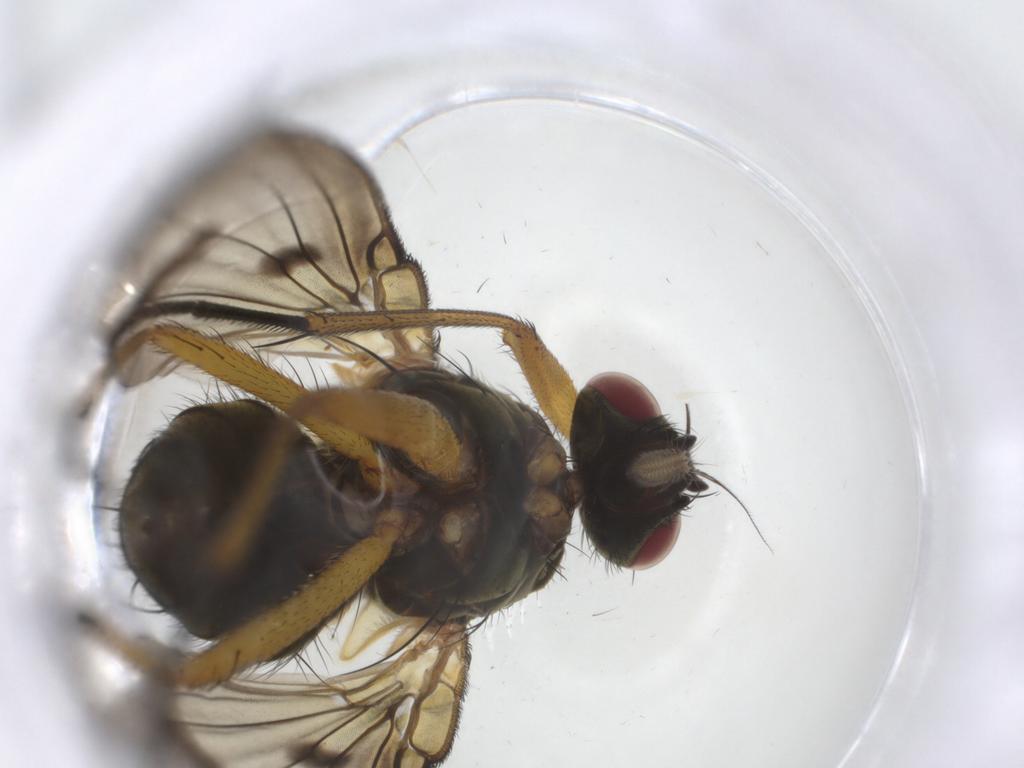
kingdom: Animalia
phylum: Arthropoda
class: Insecta
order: Diptera
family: Muscidae
